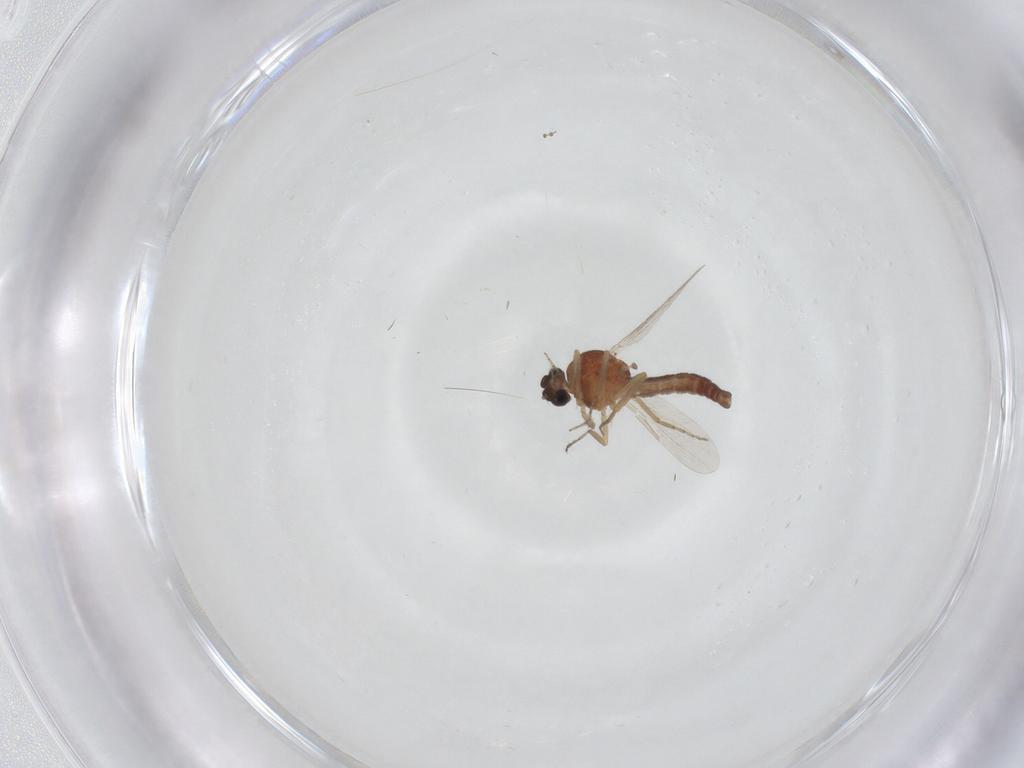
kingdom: Animalia
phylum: Arthropoda
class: Insecta
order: Diptera
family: Ceratopogonidae
